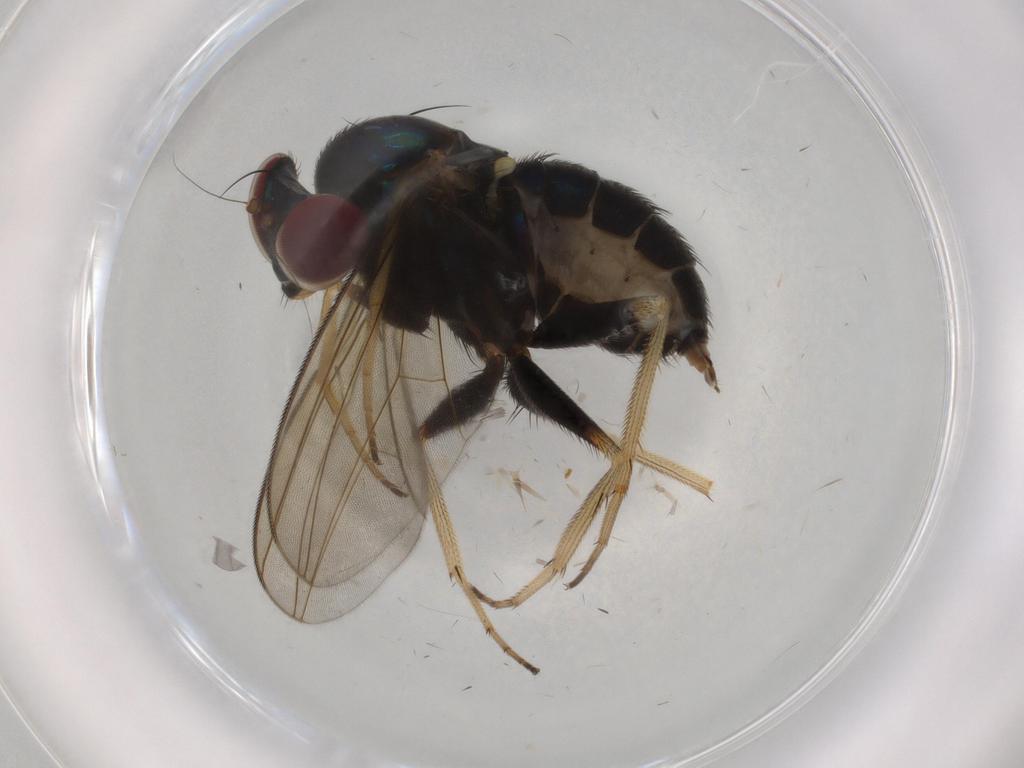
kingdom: Animalia
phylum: Arthropoda
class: Insecta
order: Diptera
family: Dolichopodidae
